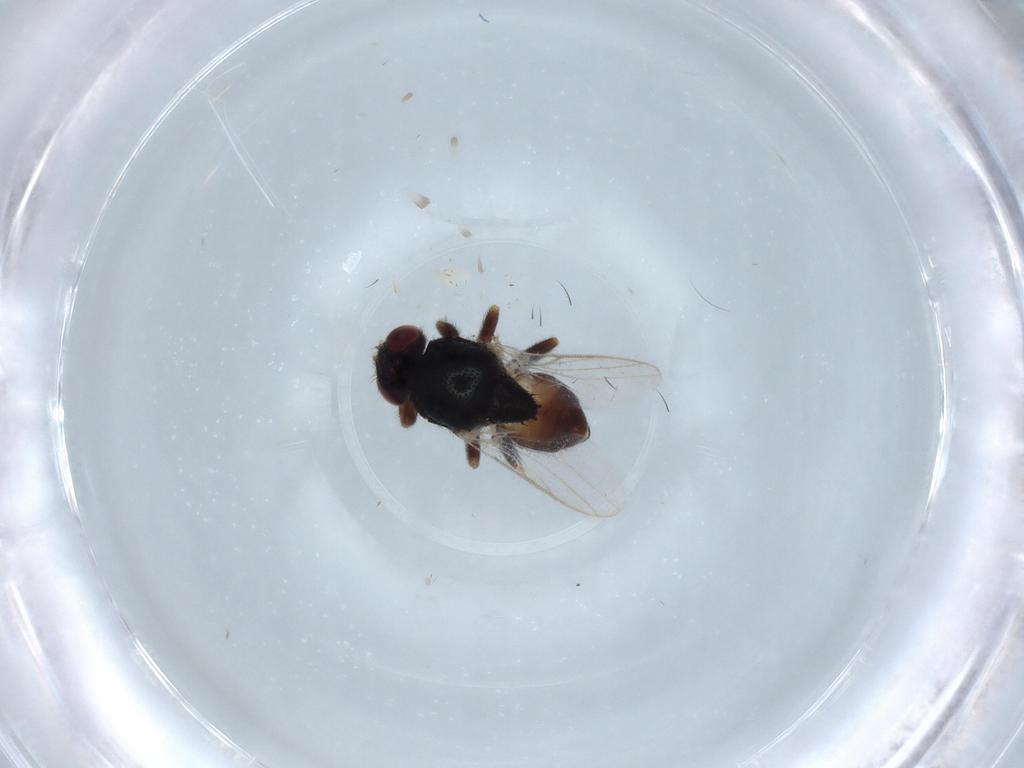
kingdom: Animalia
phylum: Arthropoda
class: Insecta
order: Diptera
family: Chloropidae
